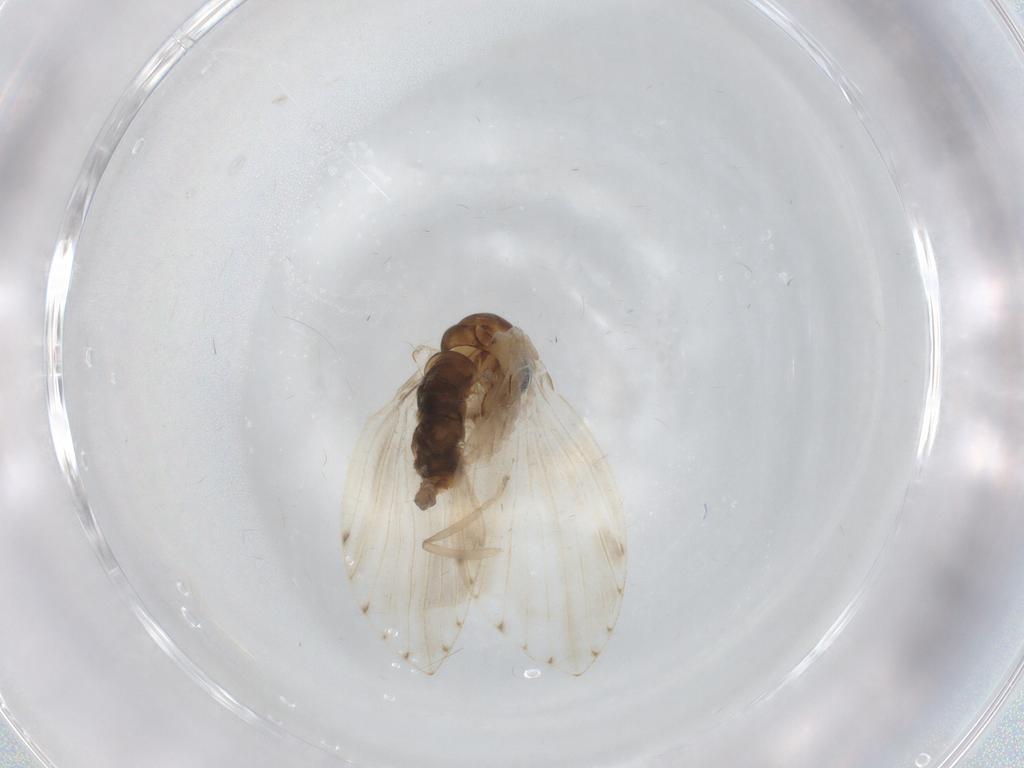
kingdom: Animalia
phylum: Arthropoda
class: Insecta
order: Diptera
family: Psychodidae
